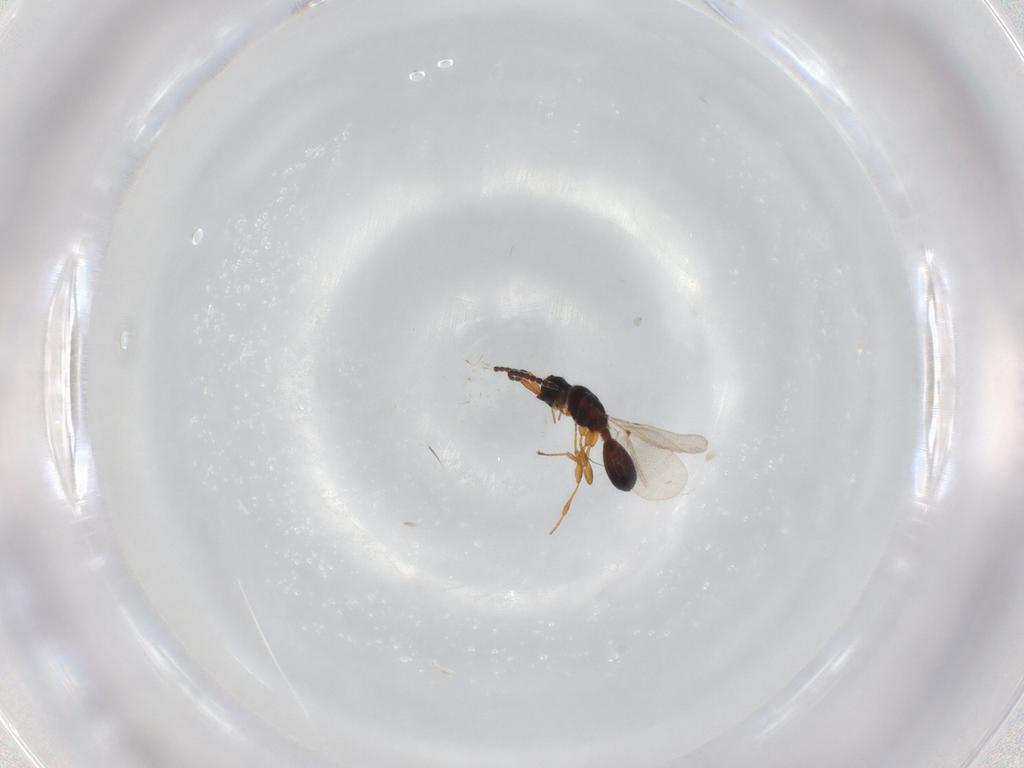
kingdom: Animalia
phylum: Arthropoda
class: Insecta
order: Hymenoptera
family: Diapriidae
